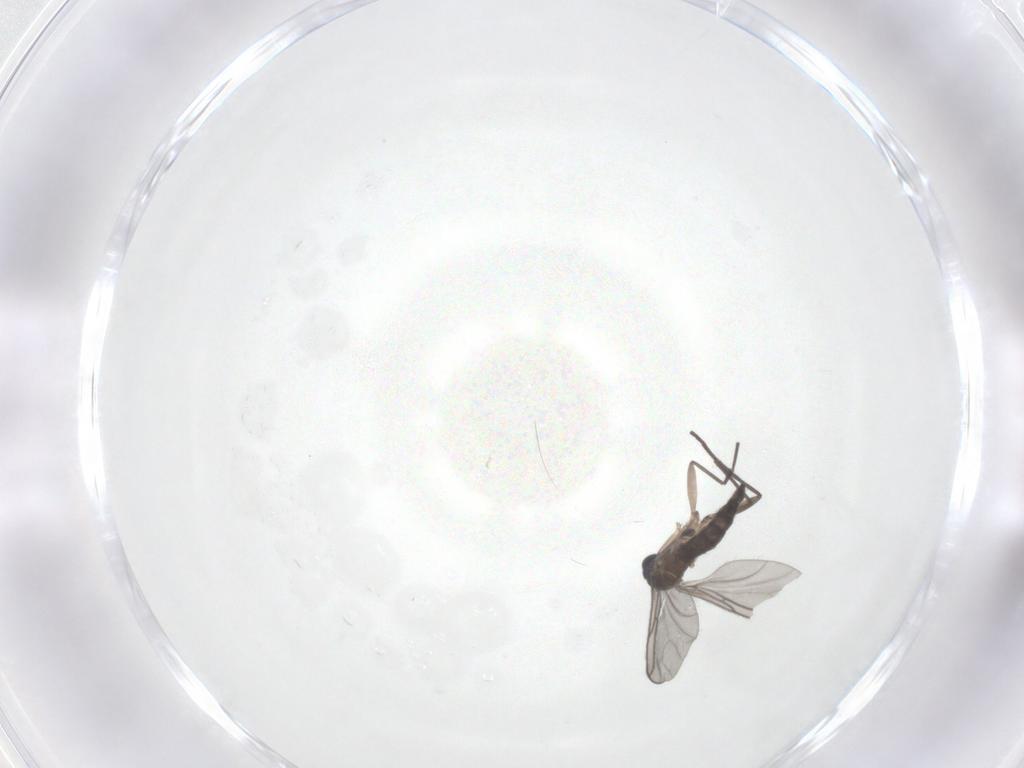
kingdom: Animalia
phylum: Arthropoda
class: Insecta
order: Diptera
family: Sciaridae
